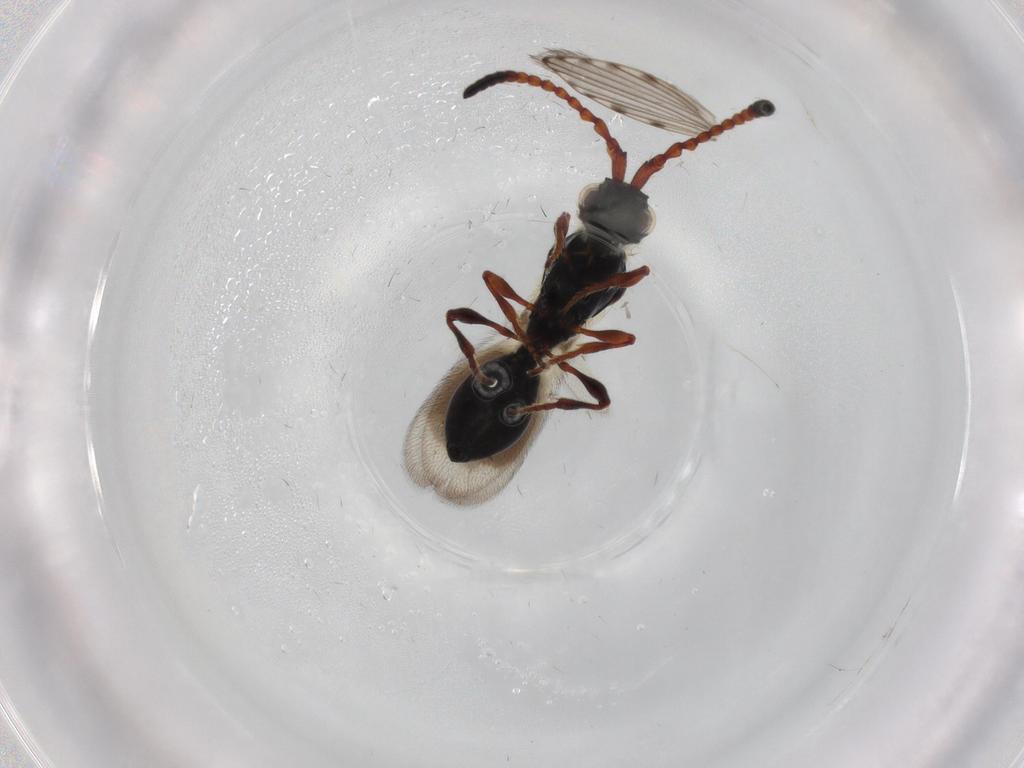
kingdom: Animalia
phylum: Arthropoda
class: Insecta
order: Hymenoptera
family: Diapriidae
